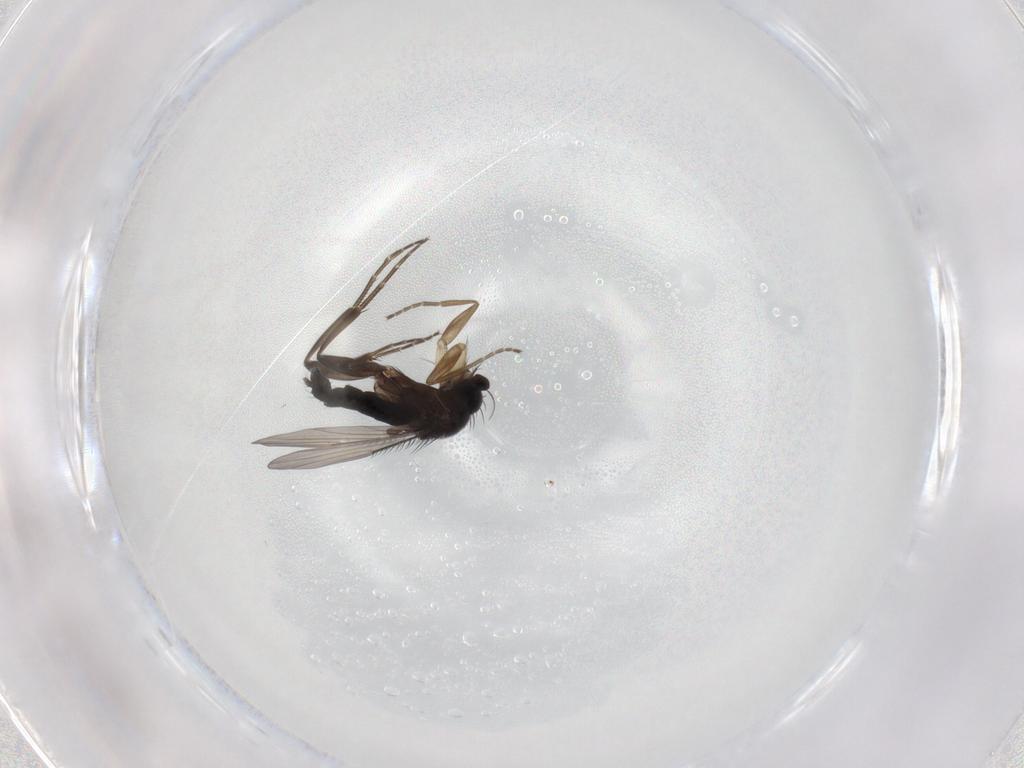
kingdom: Animalia
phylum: Arthropoda
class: Insecta
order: Diptera
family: Phoridae
